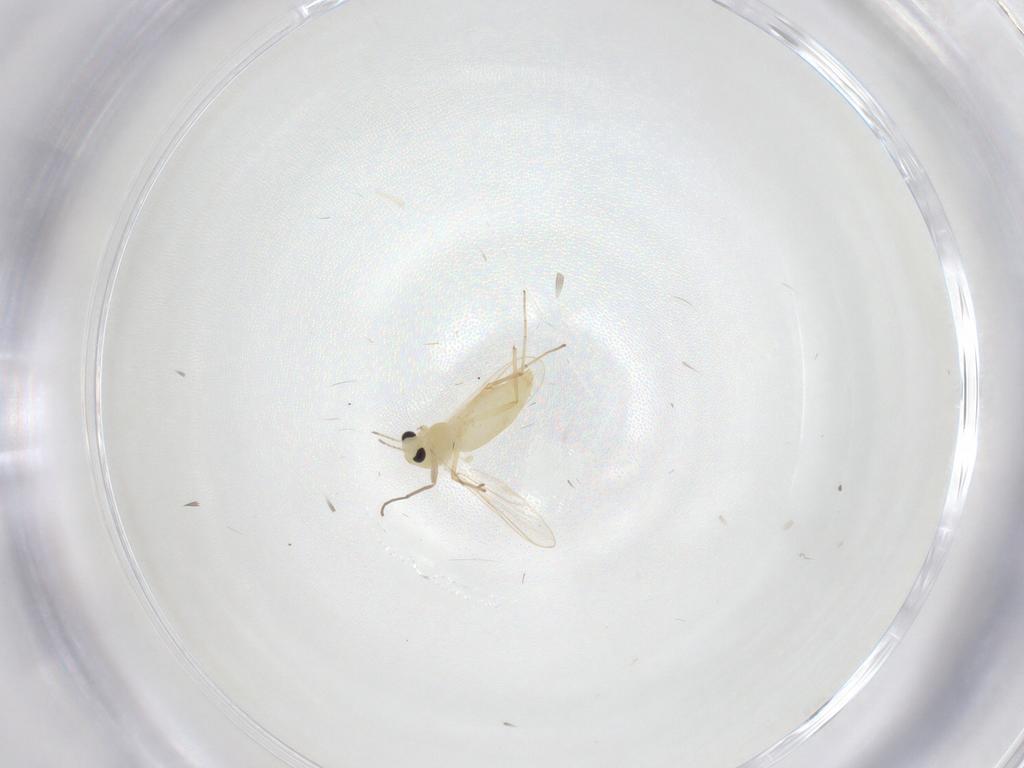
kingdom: Animalia
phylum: Arthropoda
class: Insecta
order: Diptera
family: Chironomidae
